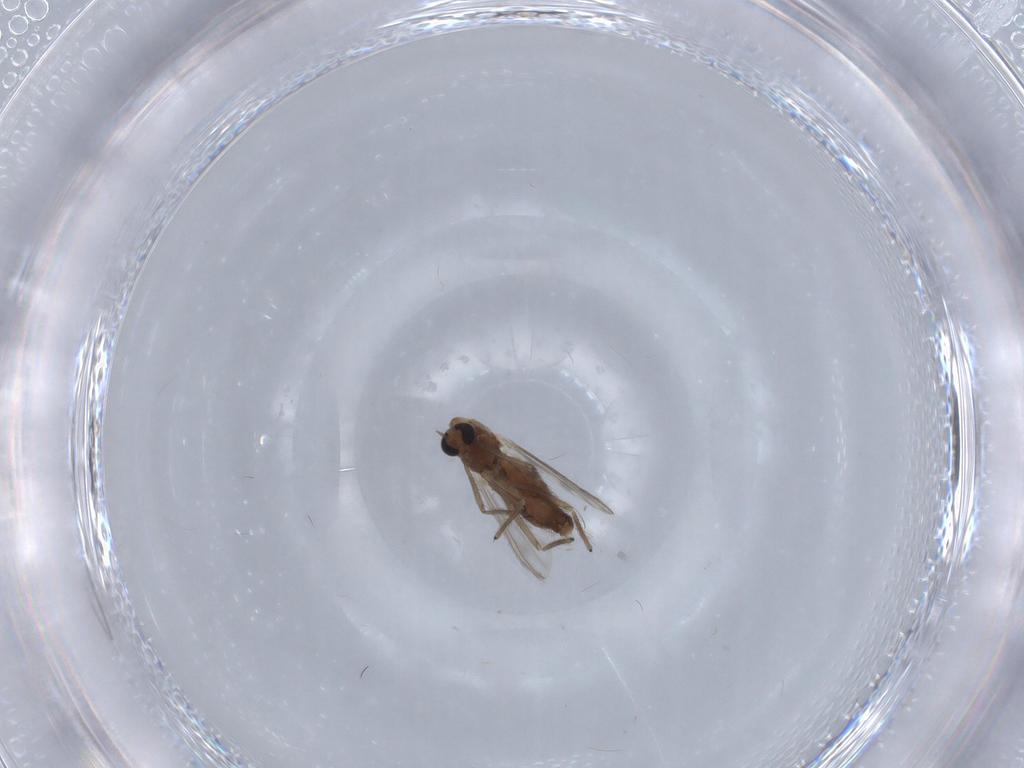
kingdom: Animalia
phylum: Arthropoda
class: Insecta
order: Diptera
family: Chironomidae
